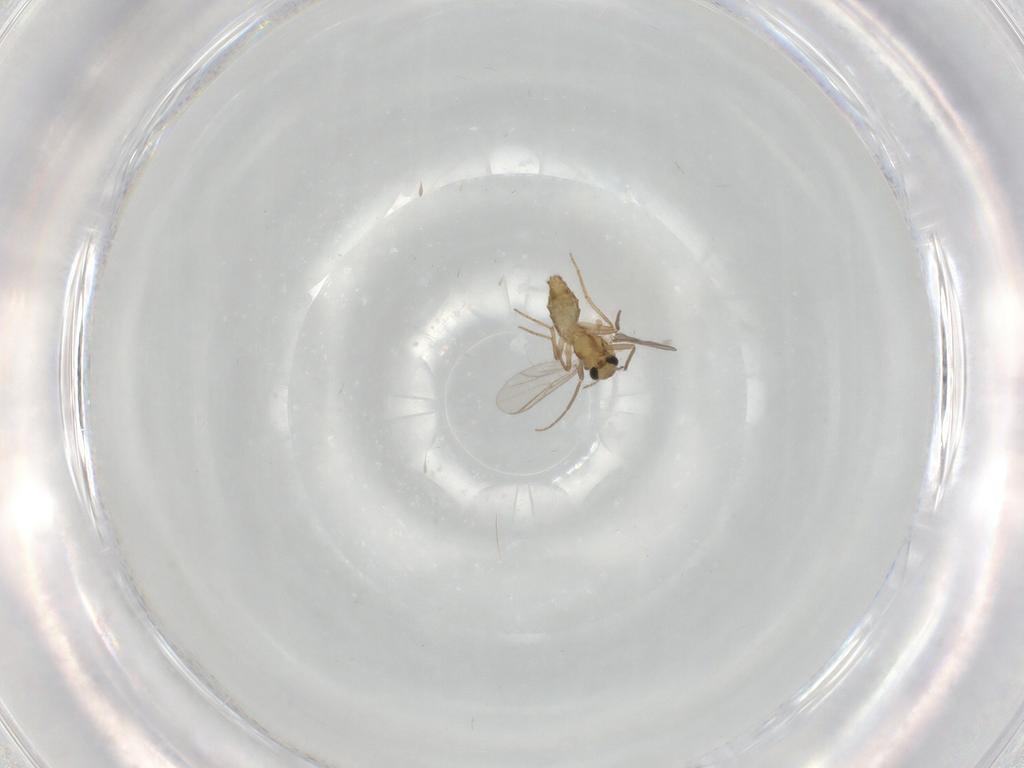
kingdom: Animalia
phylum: Arthropoda
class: Insecta
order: Diptera
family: Chironomidae
